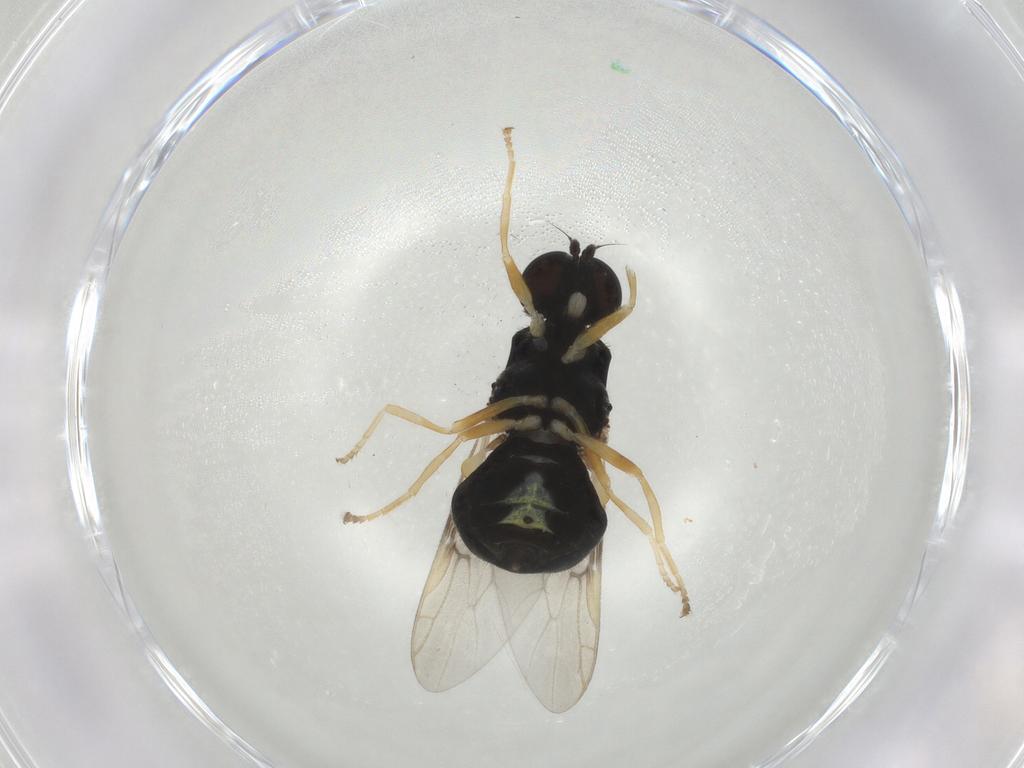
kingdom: Animalia
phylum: Arthropoda
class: Insecta
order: Diptera
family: Stratiomyidae
